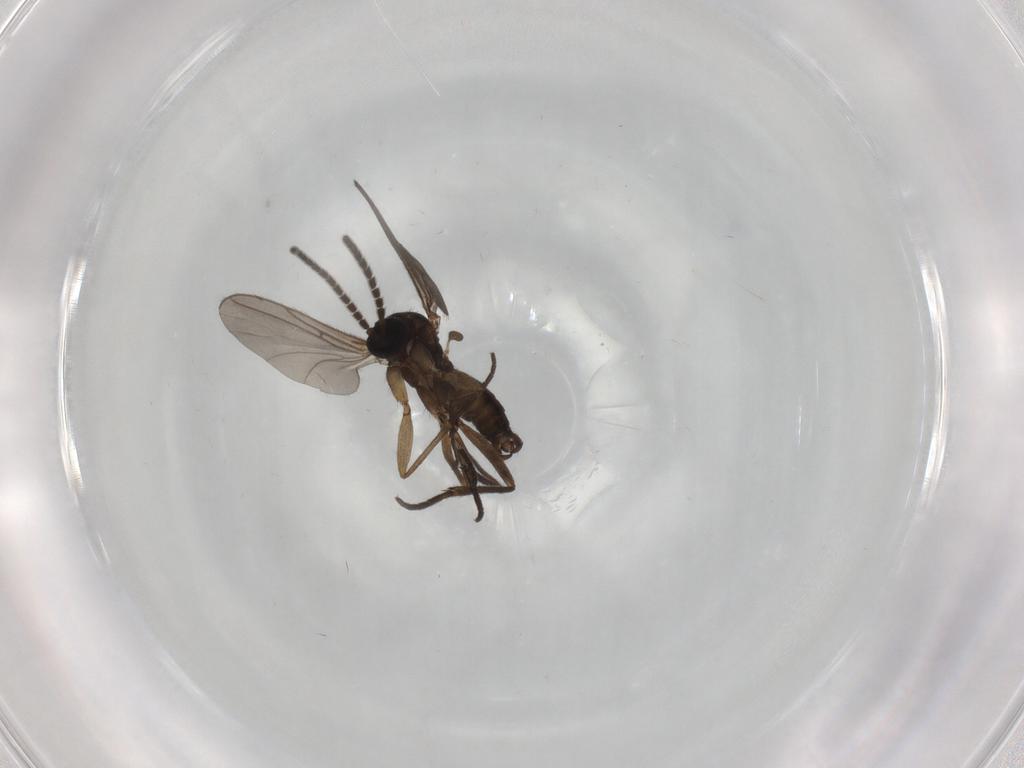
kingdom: Animalia
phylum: Arthropoda
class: Insecta
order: Diptera
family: Sciaridae
